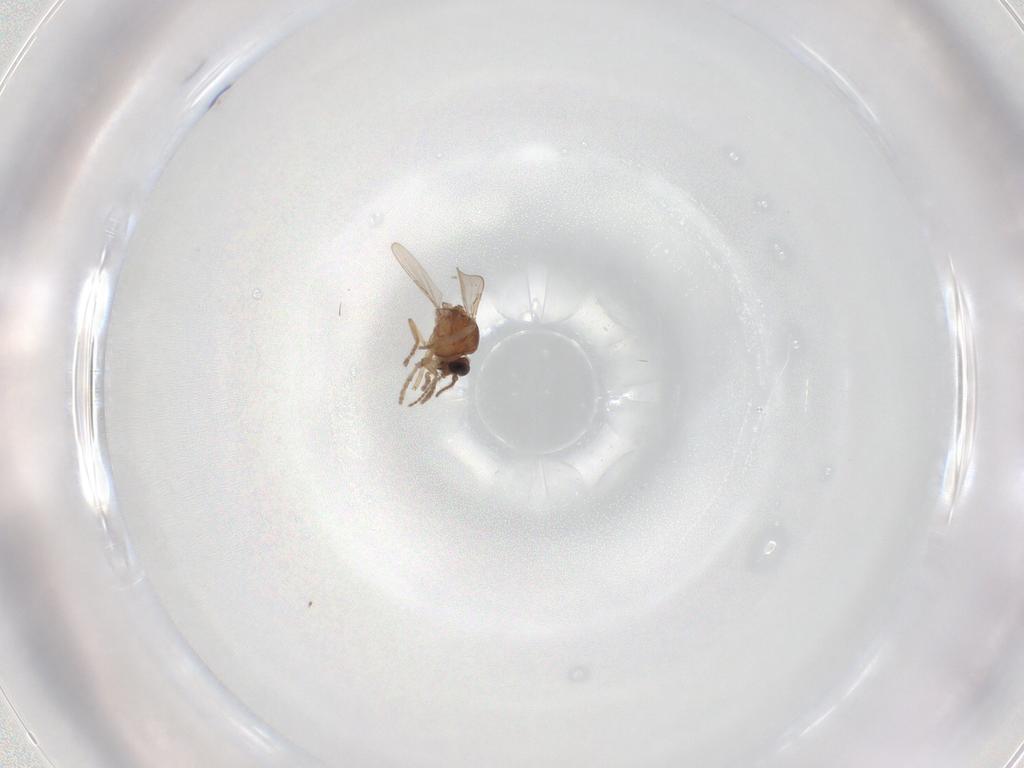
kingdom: Animalia
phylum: Arthropoda
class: Insecta
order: Diptera
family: Ceratopogonidae
